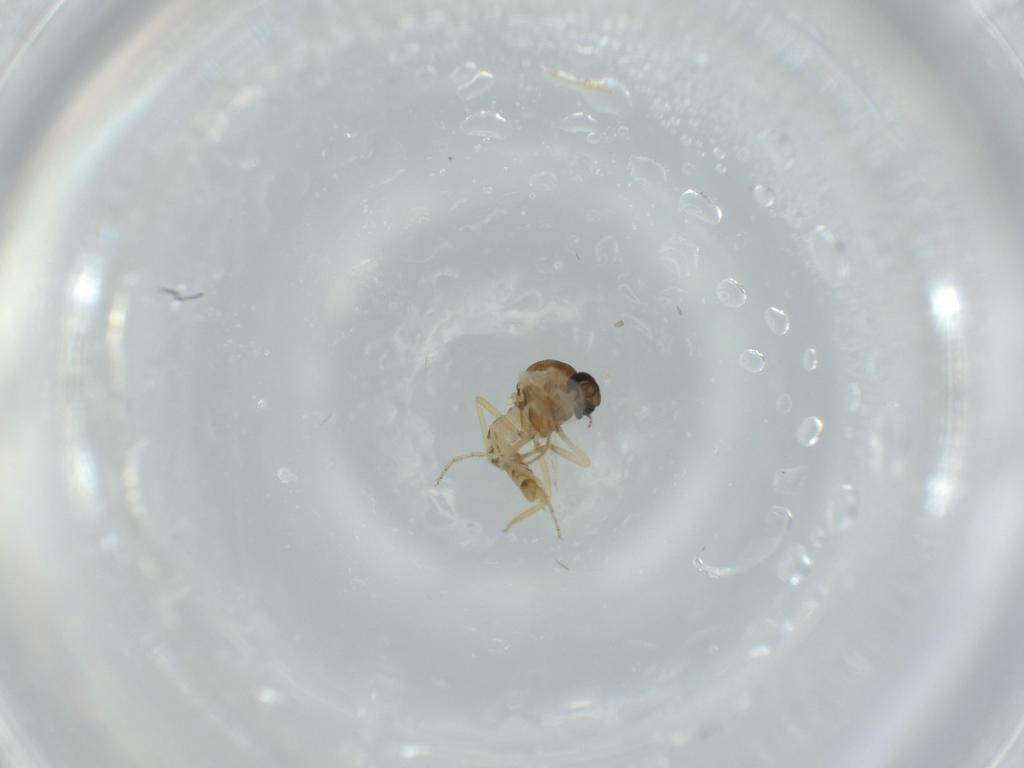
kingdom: Animalia
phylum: Arthropoda
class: Insecta
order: Diptera
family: Ceratopogonidae
